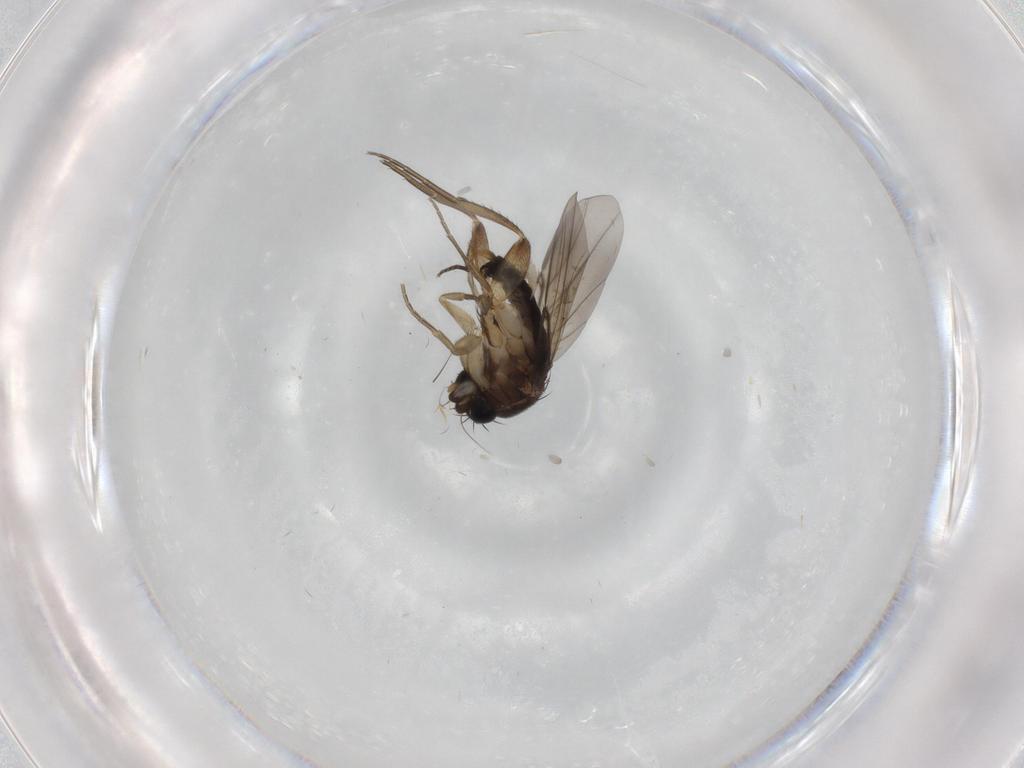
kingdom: Animalia
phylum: Arthropoda
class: Insecta
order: Diptera
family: Phoridae
